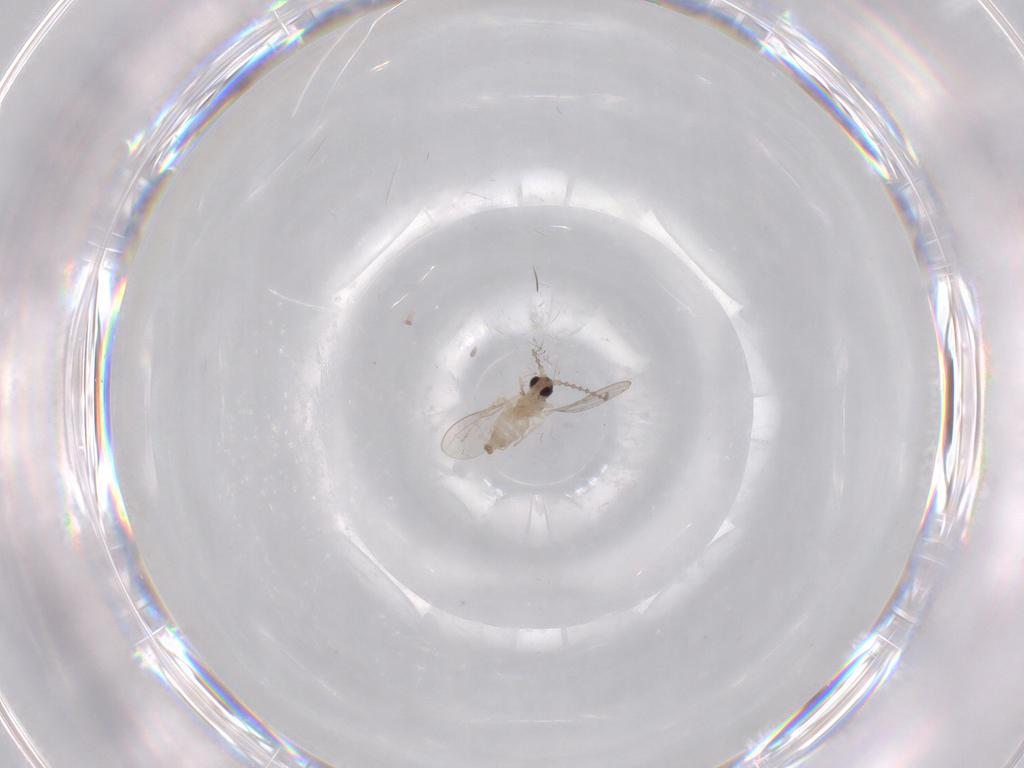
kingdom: Animalia
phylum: Arthropoda
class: Insecta
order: Diptera
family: Cecidomyiidae
